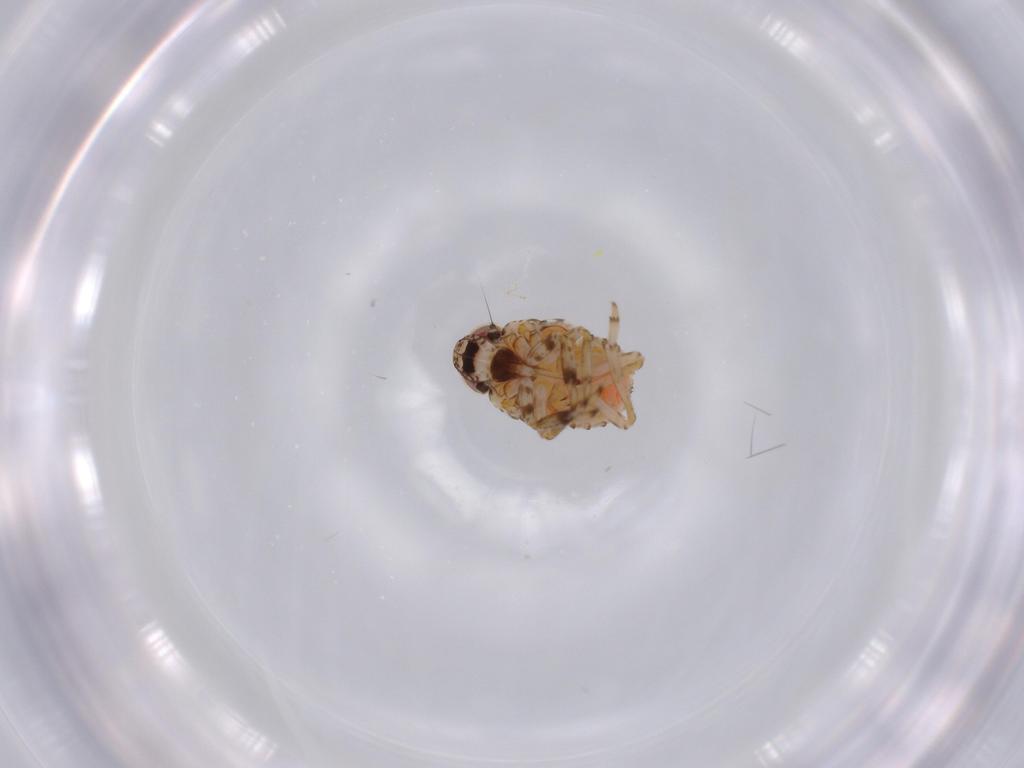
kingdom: Animalia
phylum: Arthropoda
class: Insecta
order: Hemiptera
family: Issidae
